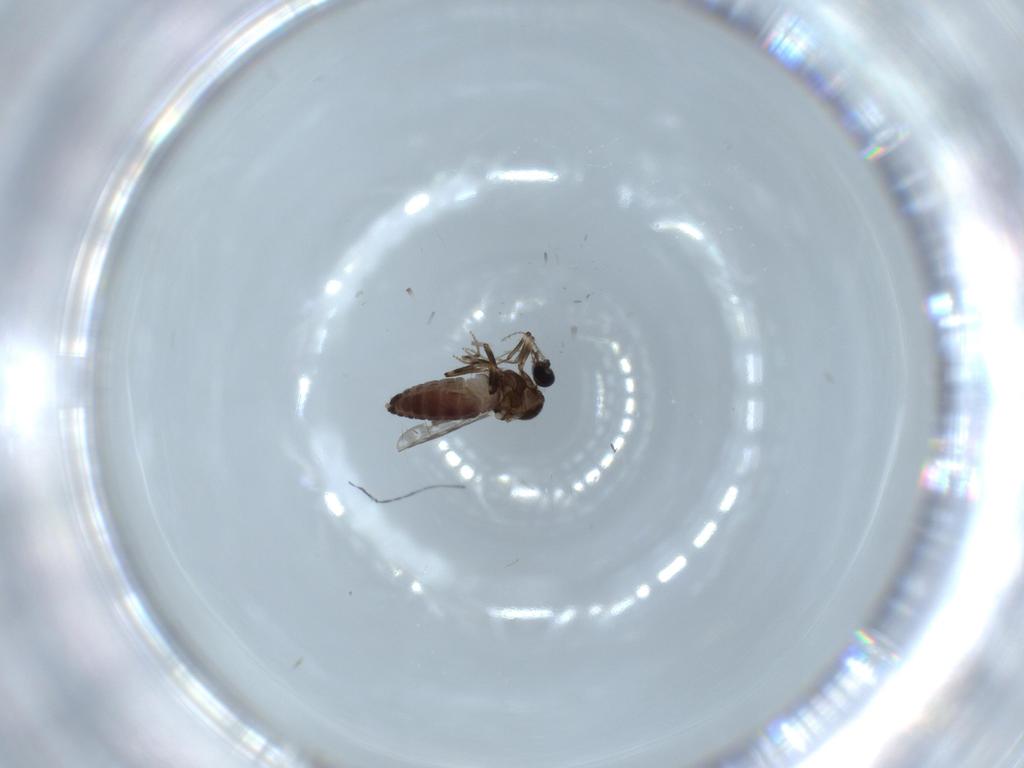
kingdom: Animalia
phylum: Arthropoda
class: Insecta
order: Diptera
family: Ceratopogonidae
